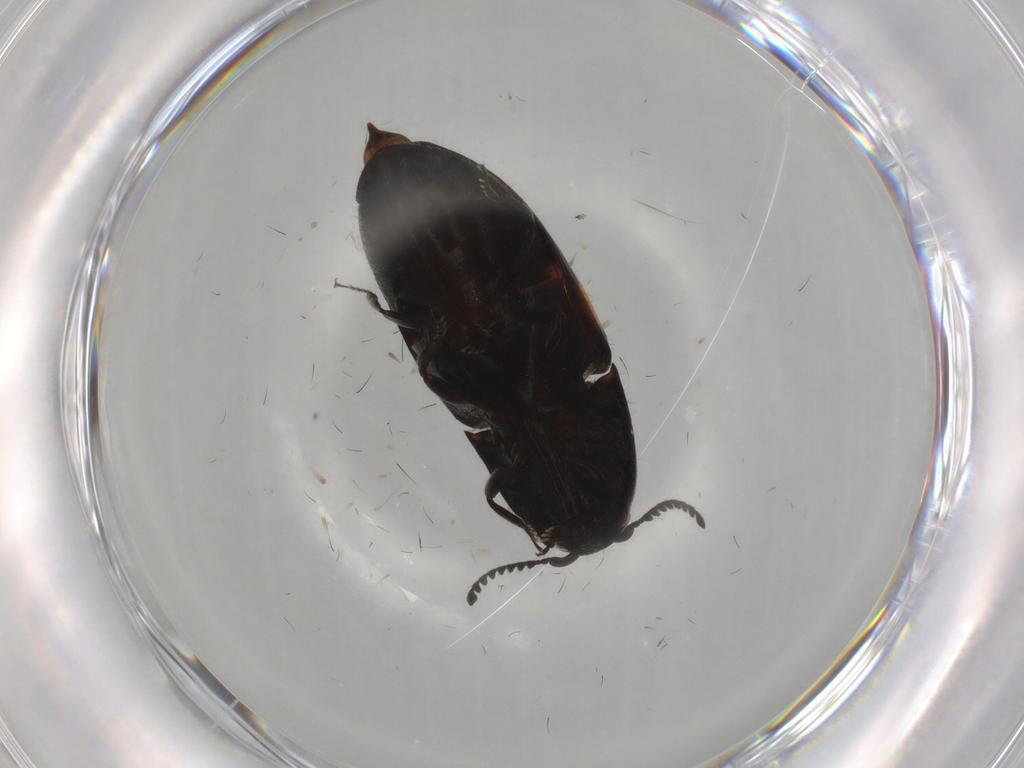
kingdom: Animalia
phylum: Arthropoda
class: Insecta
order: Coleoptera
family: Elateridae
